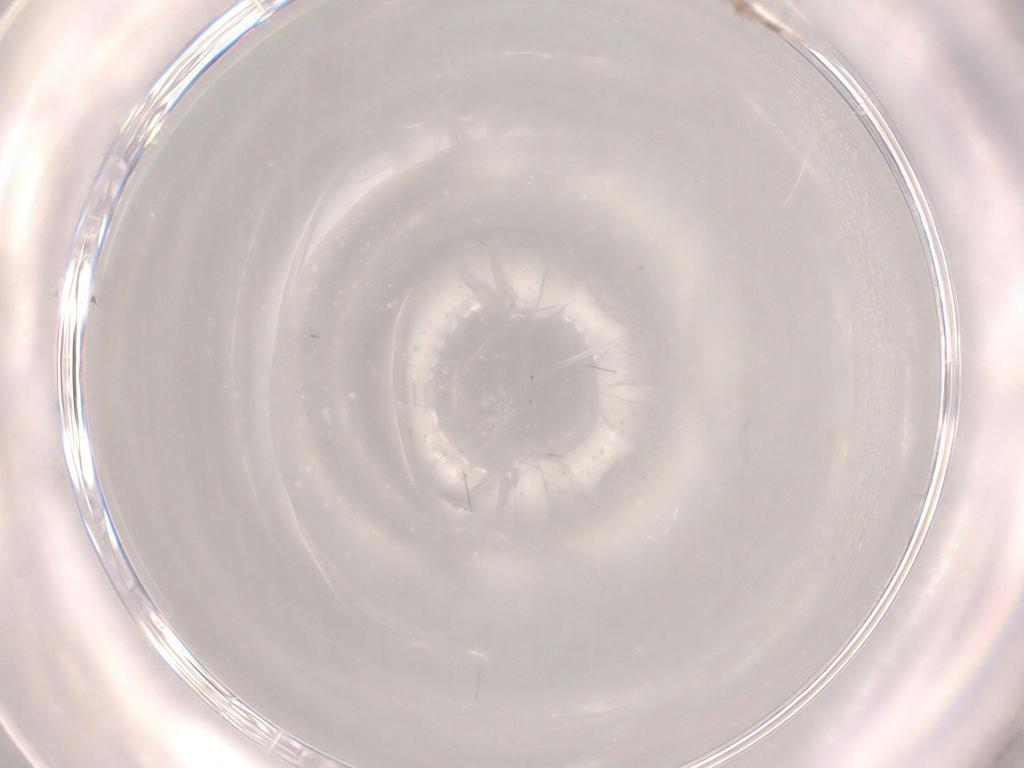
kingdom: Animalia
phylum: Arthropoda
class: Insecta
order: Diptera
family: Cecidomyiidae
